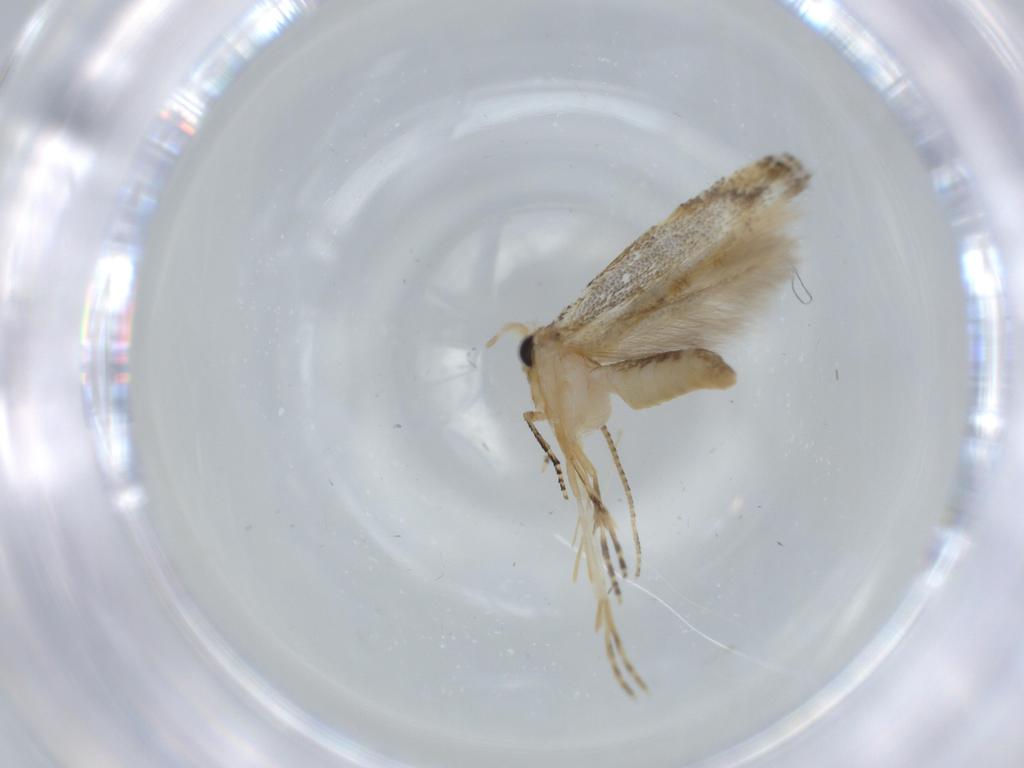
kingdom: Animalia
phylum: Arthropoda
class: Insecta
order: Lepidoptera
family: Bucculatricidae
